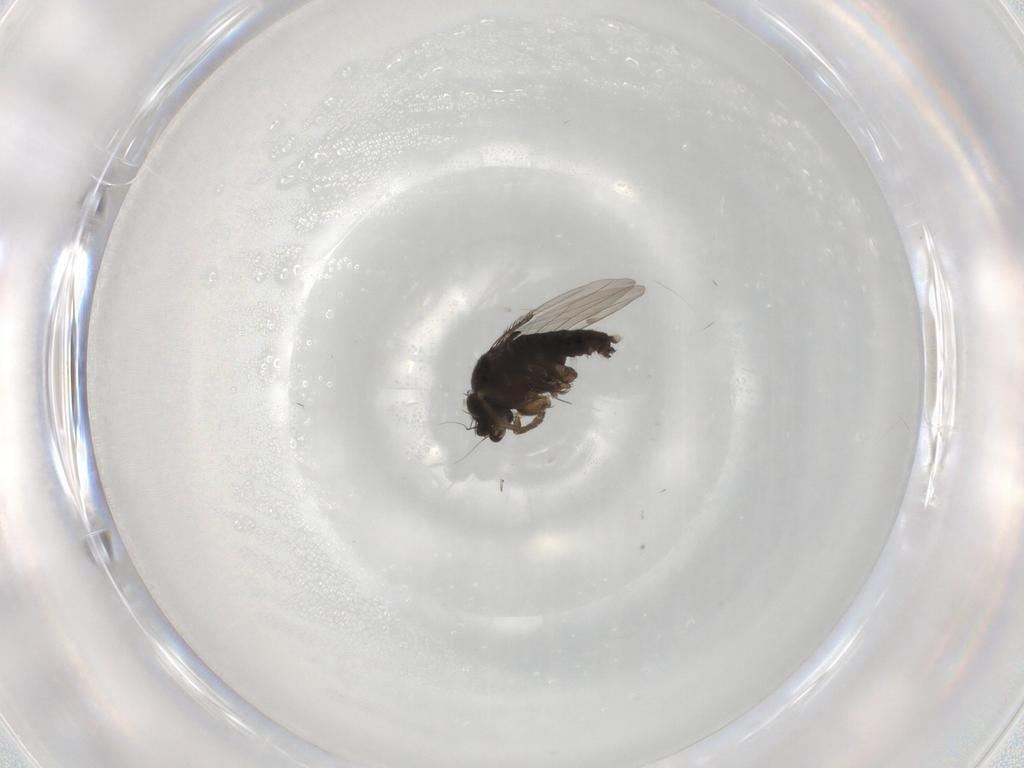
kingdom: Animalia
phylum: Arthropoda
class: Insecta
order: Diptera
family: Phoridae
